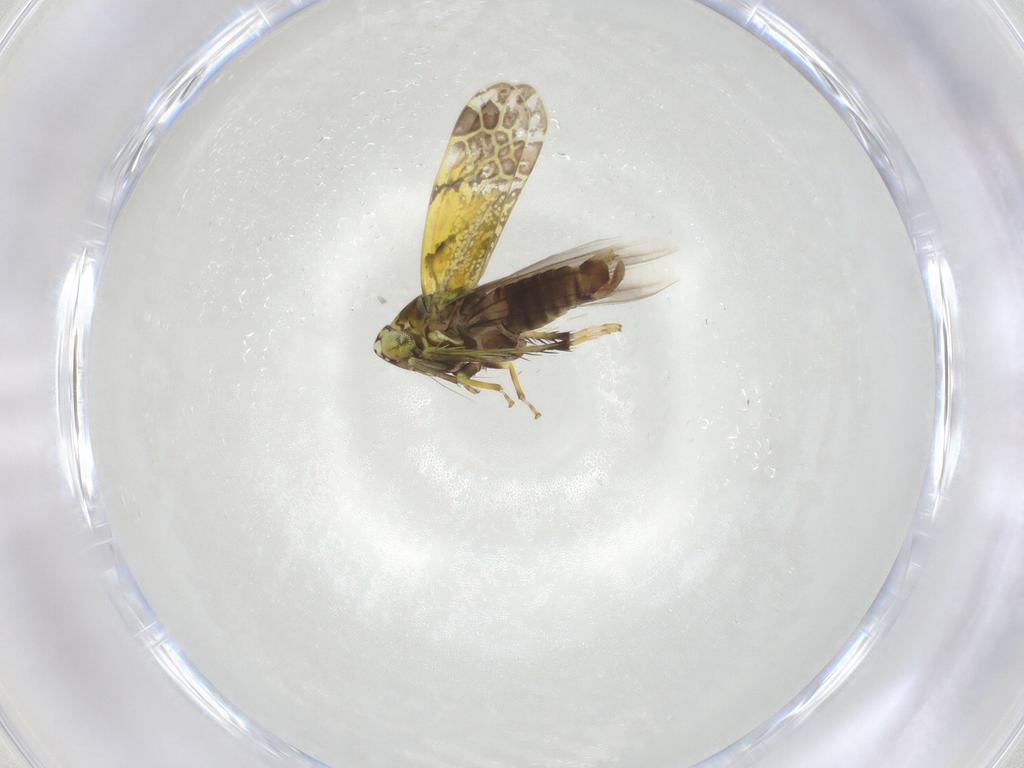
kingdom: Animalia
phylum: Arthropoda
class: Insecta
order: Hemiptera
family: Cicadellidae
